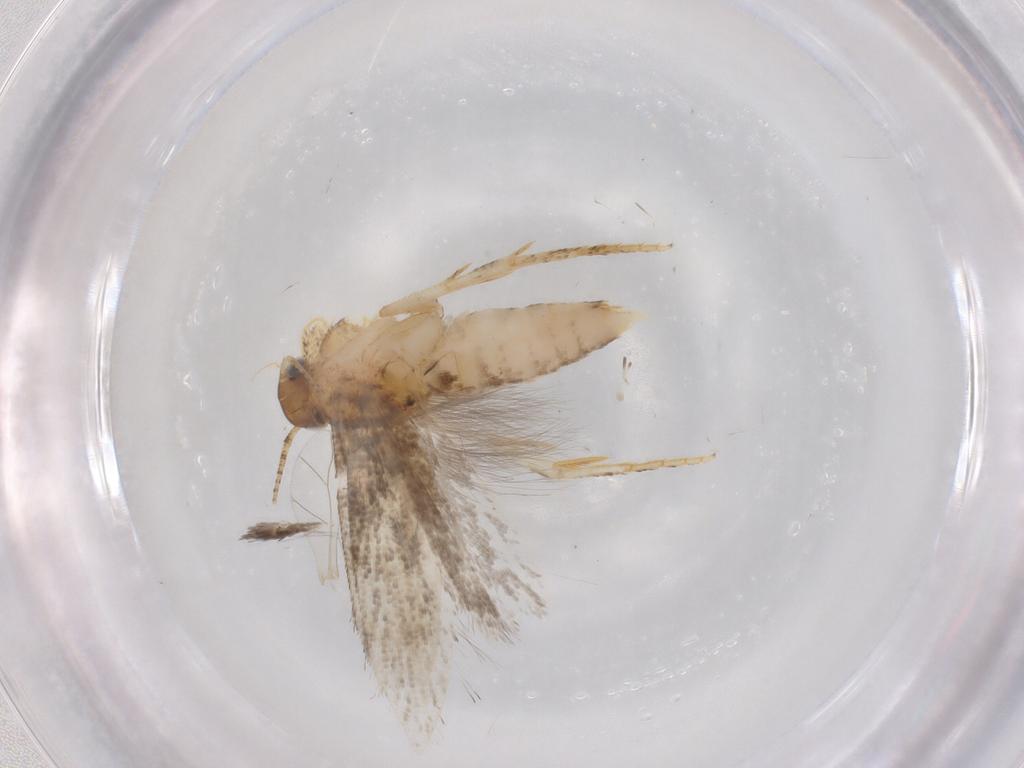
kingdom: Animalia
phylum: Arthropoda
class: Insecta
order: Lepidoptera
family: Gelechiidae
